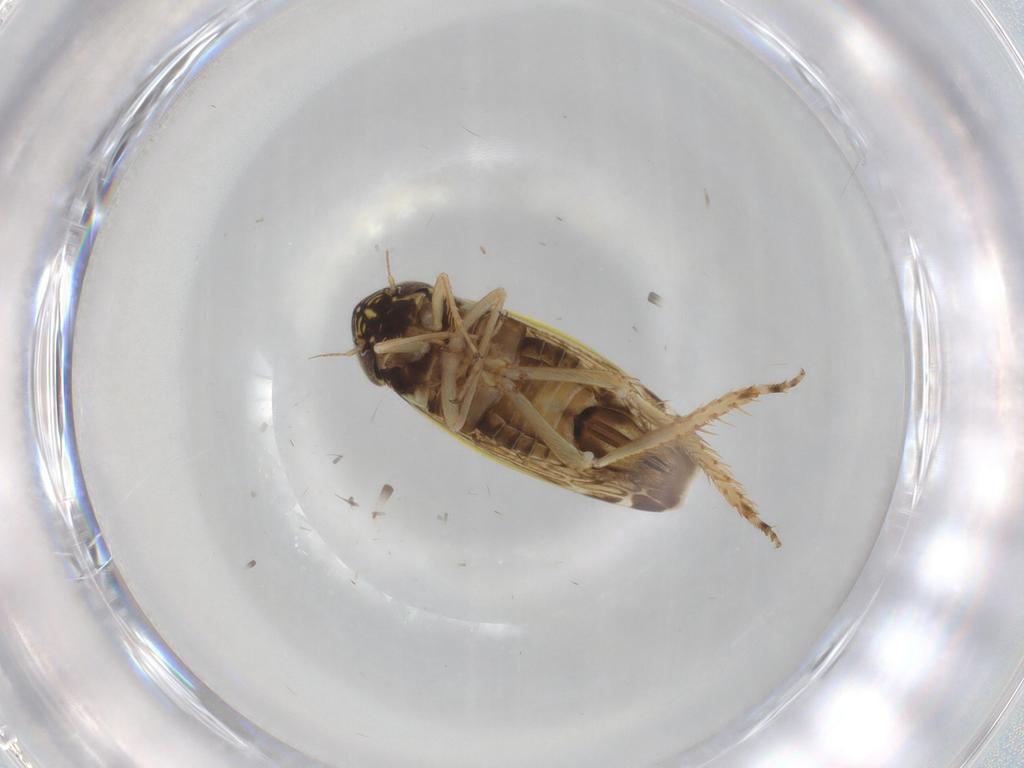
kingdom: Animalia
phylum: Arthropoda
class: Insecta
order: Hemiptera
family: Cicadellidae
